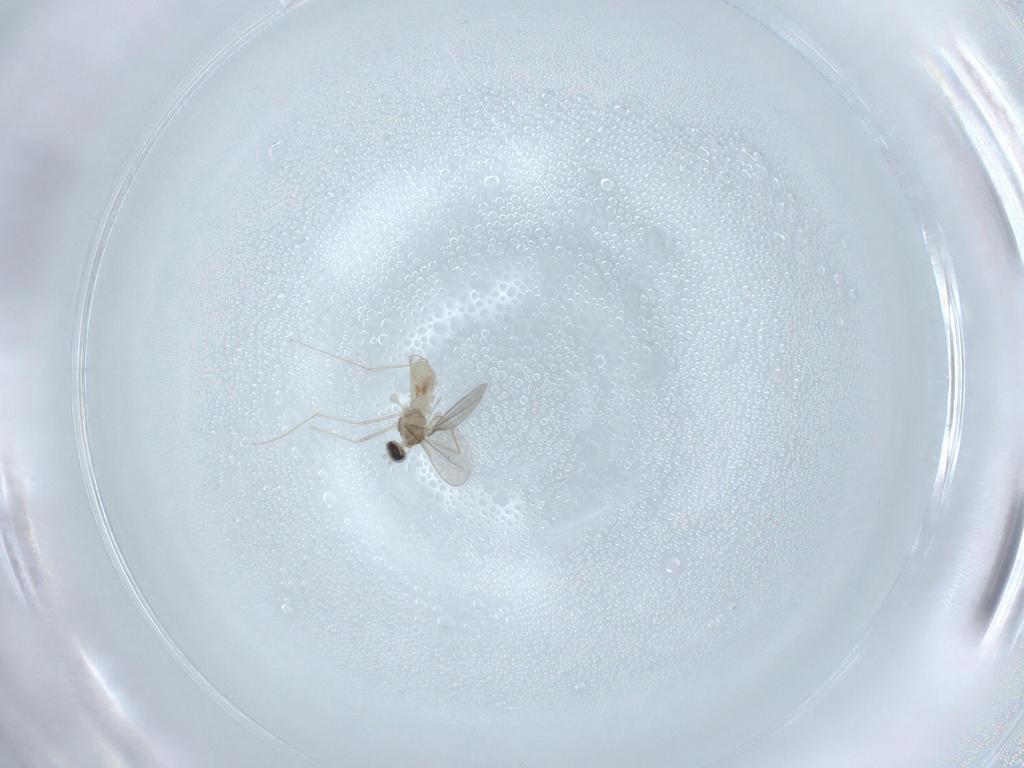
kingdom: Animalia
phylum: Arthropoda
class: Insecta
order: Diptera
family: Cecidomyiidae
